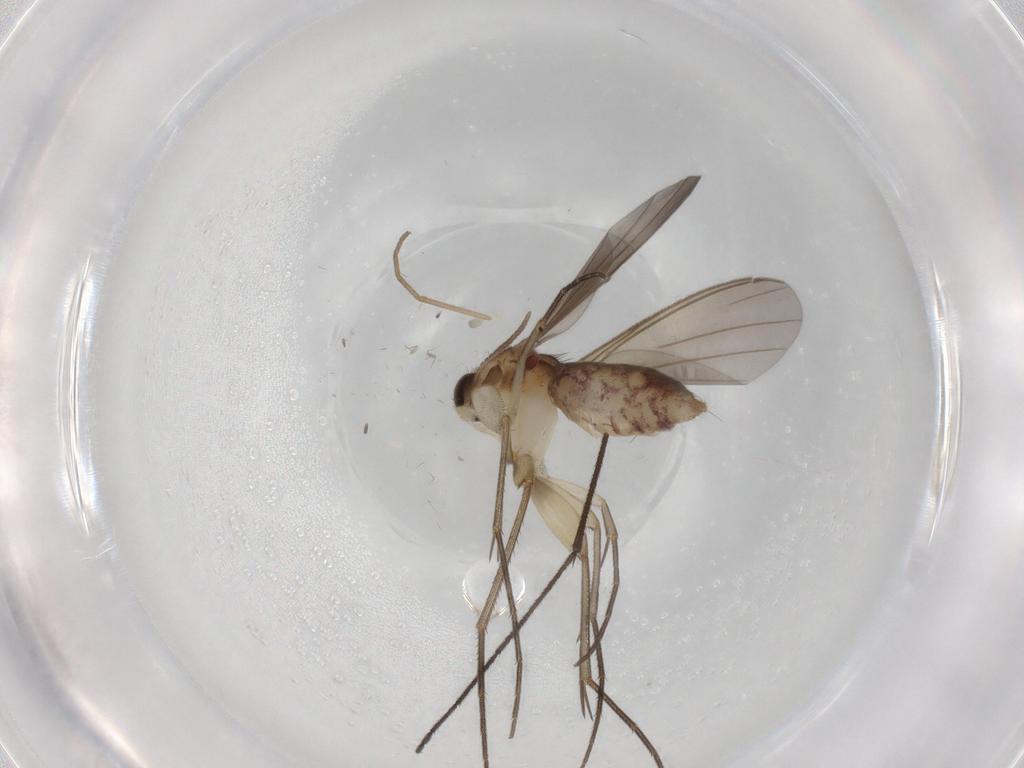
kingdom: Animalia
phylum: Arthropoda
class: Insecta
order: Diptera
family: Mycetophilidae
